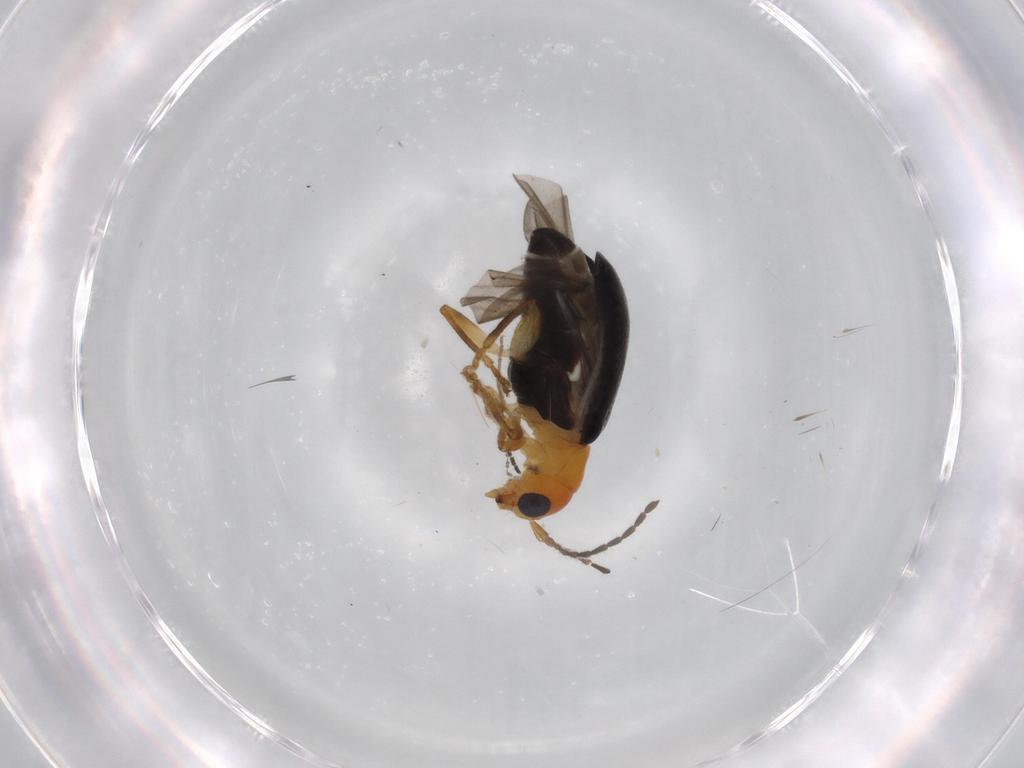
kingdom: Animalia
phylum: Arthropoda
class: Insecta
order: Coleoptera
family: Chrysomelidae
